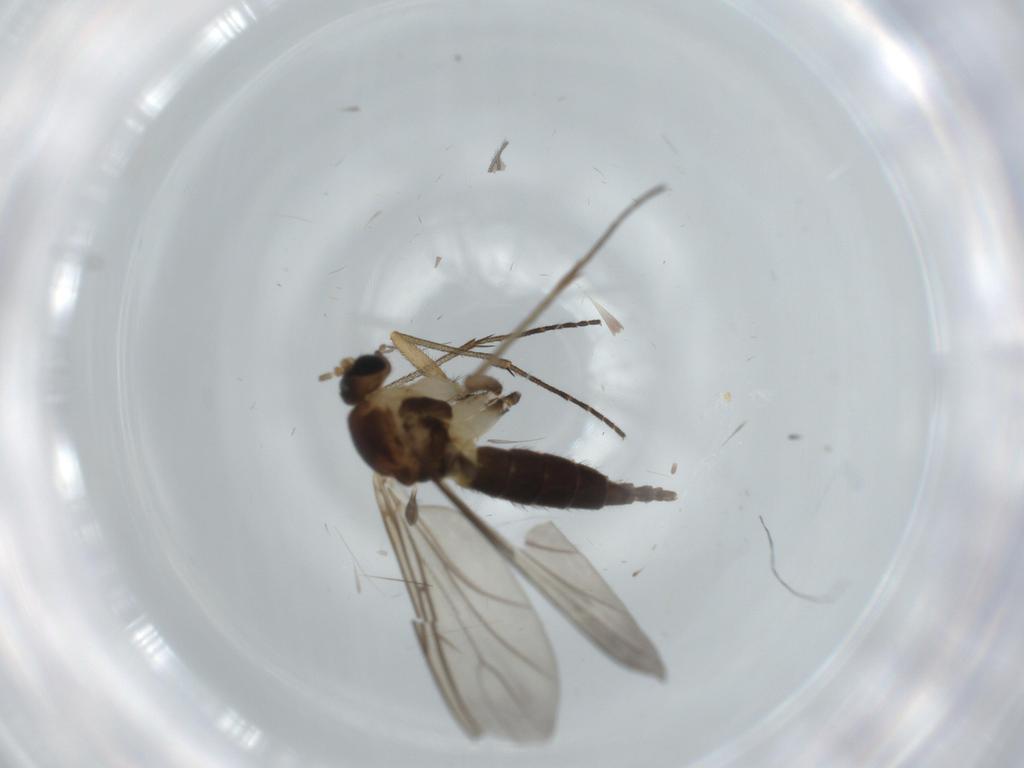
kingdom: Animalia
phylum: Arthropoda
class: Insecta
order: Diptera
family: Sciaridae
